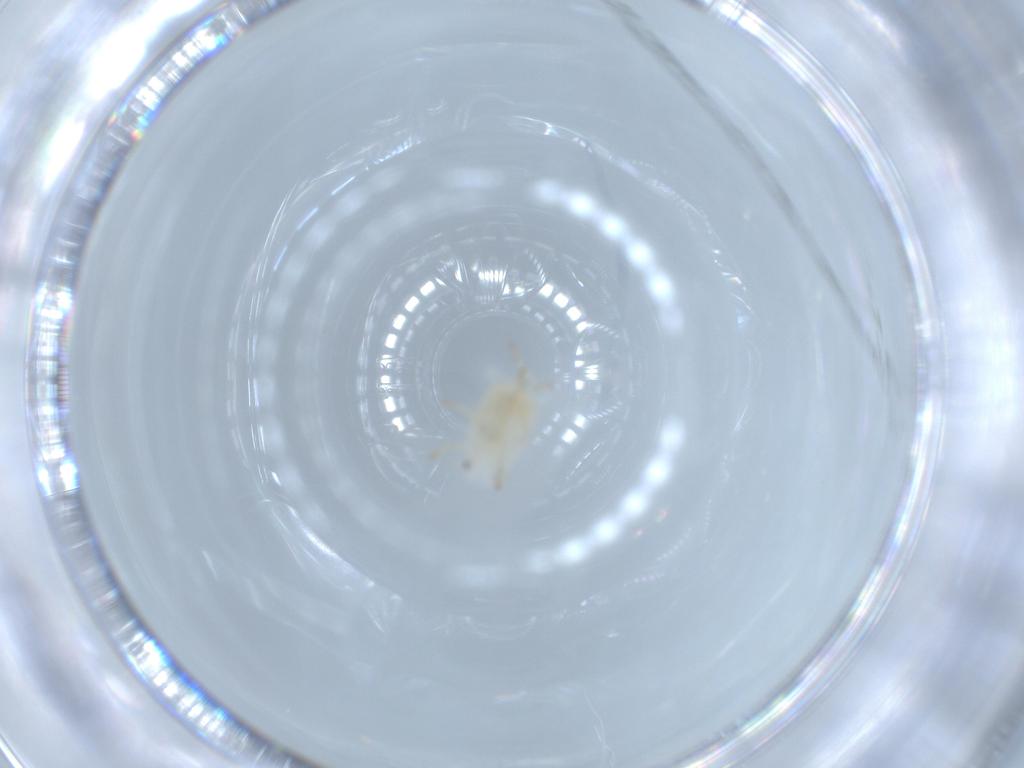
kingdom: Animalia
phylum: Arthropoda
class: Insecta
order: Hemiptera
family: Flatidae
